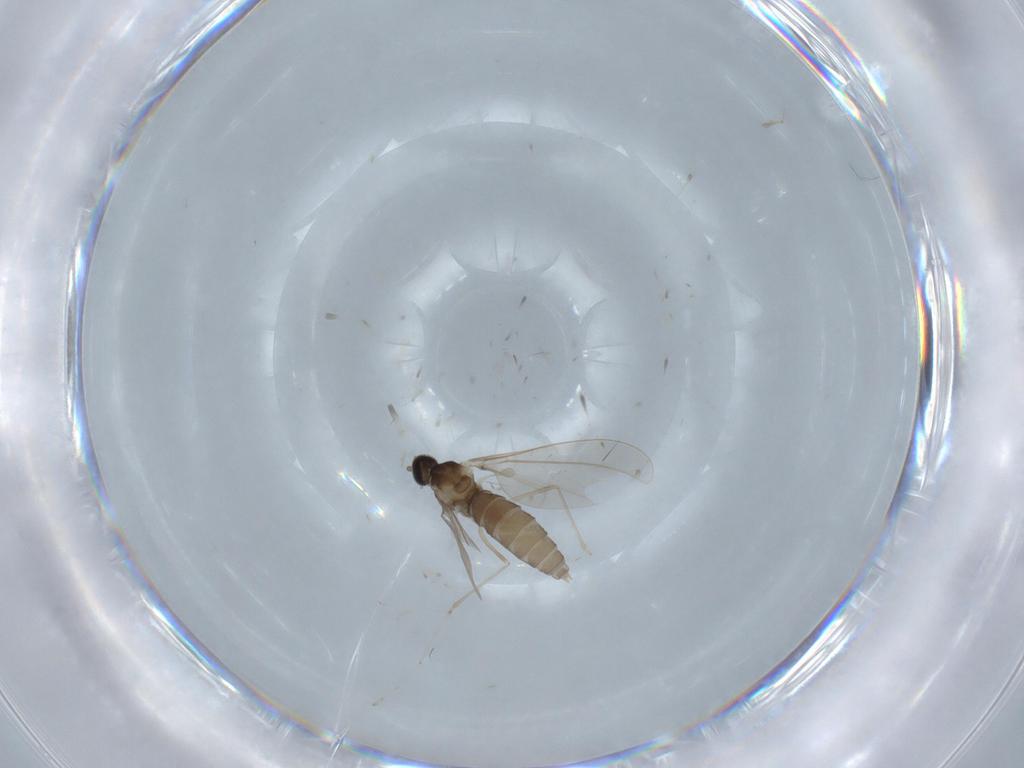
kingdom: Animalia
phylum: Arthropoda
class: Insecta
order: Diptera
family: Cecidomyiidae
